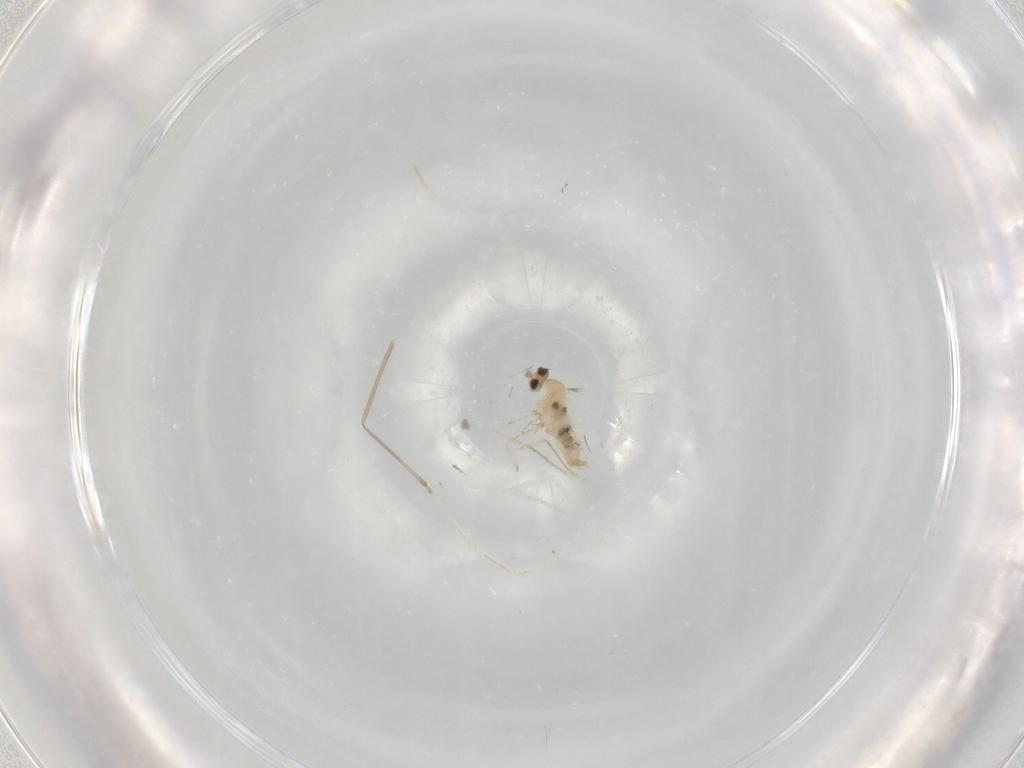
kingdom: Animalia
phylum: Arthropoda
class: Insecta
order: Diptera
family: Cecidomyiidae
